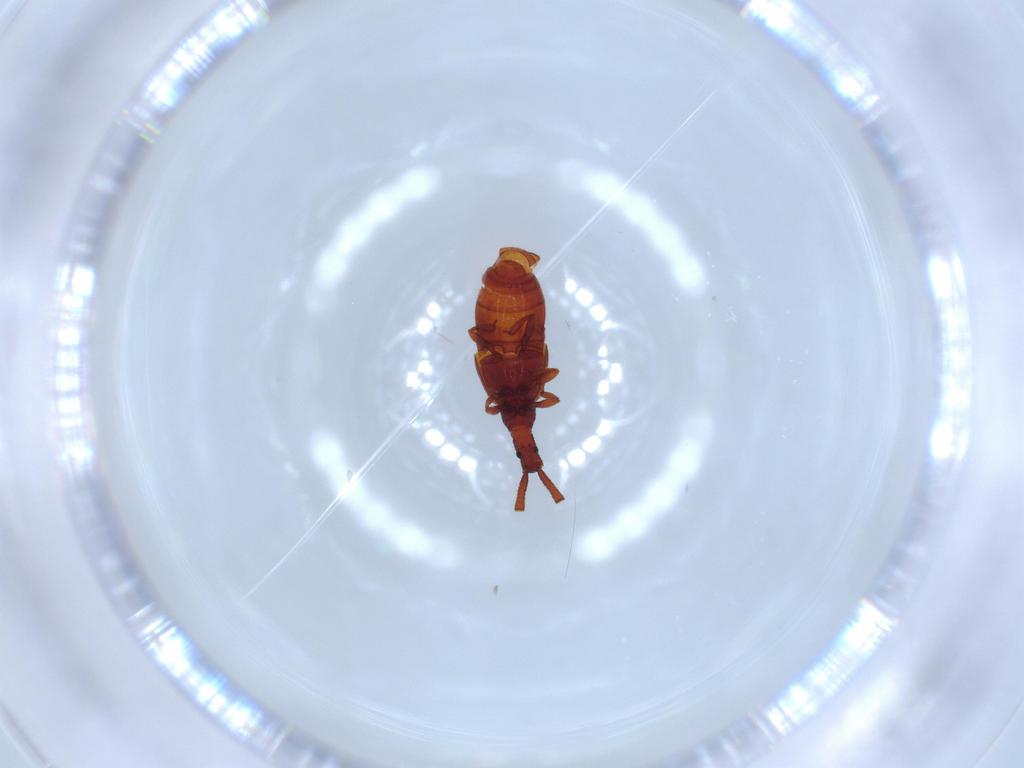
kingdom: Animalia
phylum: Arthropoda
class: Insecta
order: Coleoptera
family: Staphylinidae
